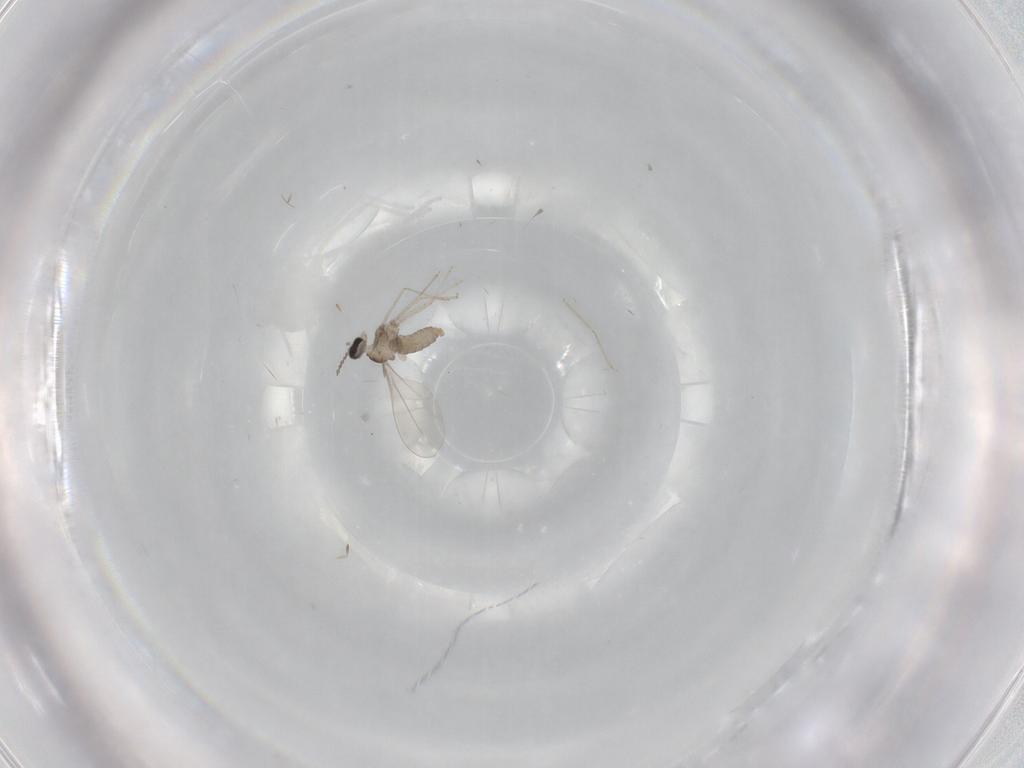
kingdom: Animalia
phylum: Arthropoda
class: Insecta
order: Diptera
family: Cecidomyiidae
